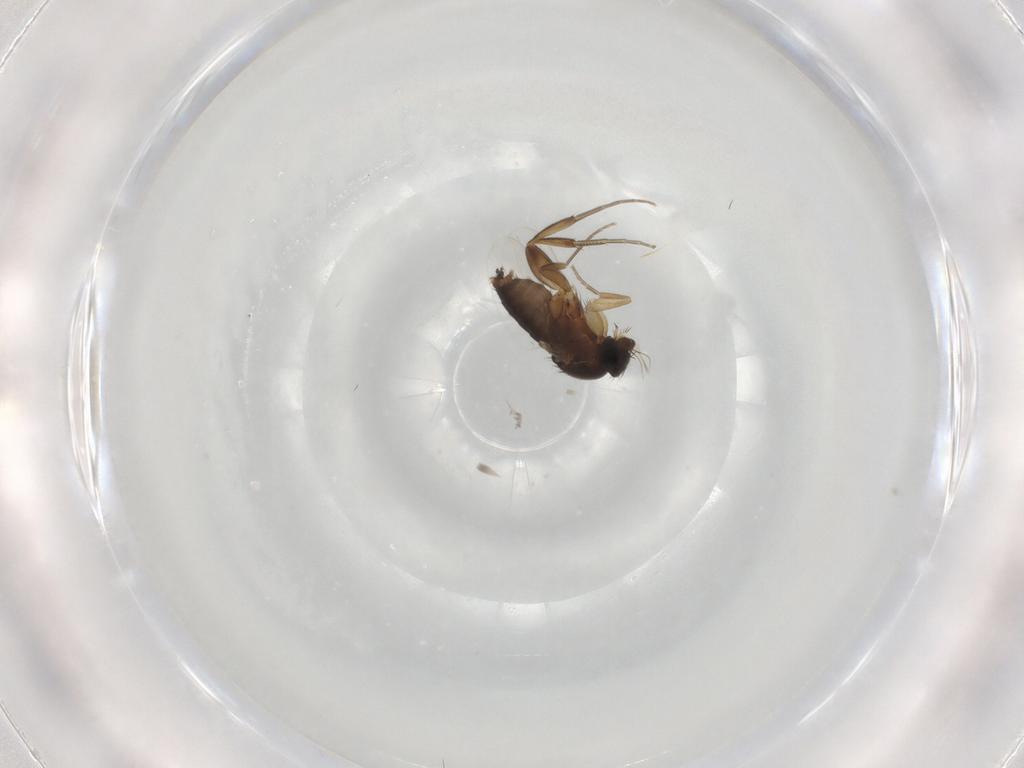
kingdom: Animalia
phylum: Arthropoda
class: Insecta
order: Diptera
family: Phoridae
